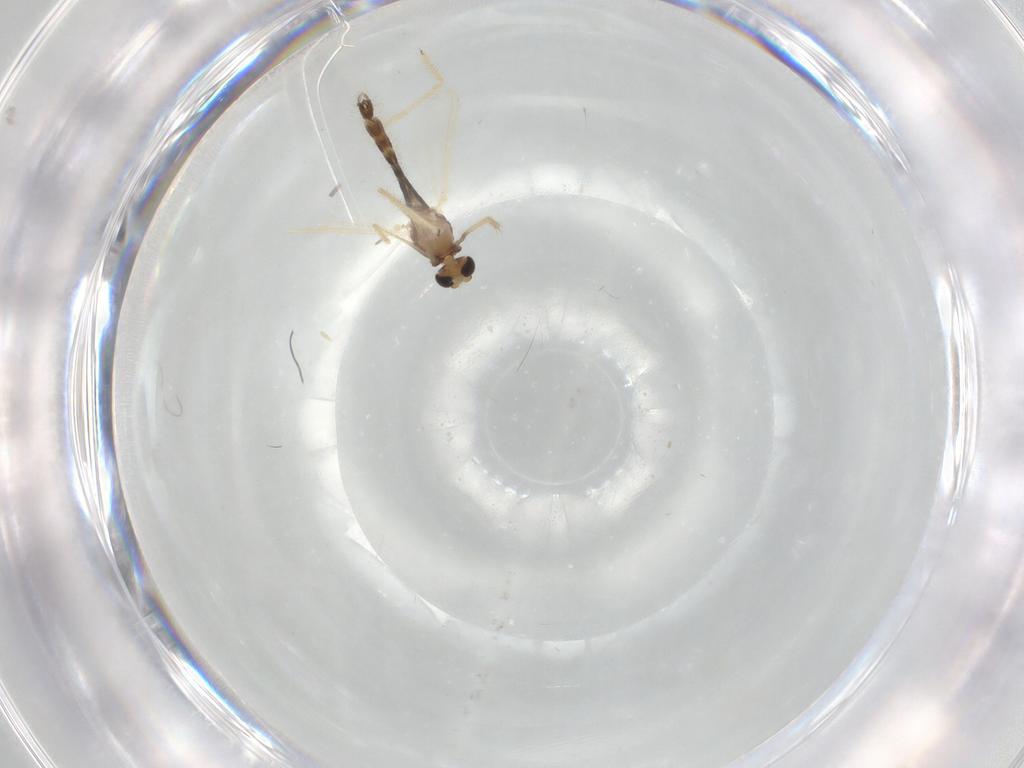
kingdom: Animalia
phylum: Arthropoda
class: Insecta
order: Diptera
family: Chironomidae
